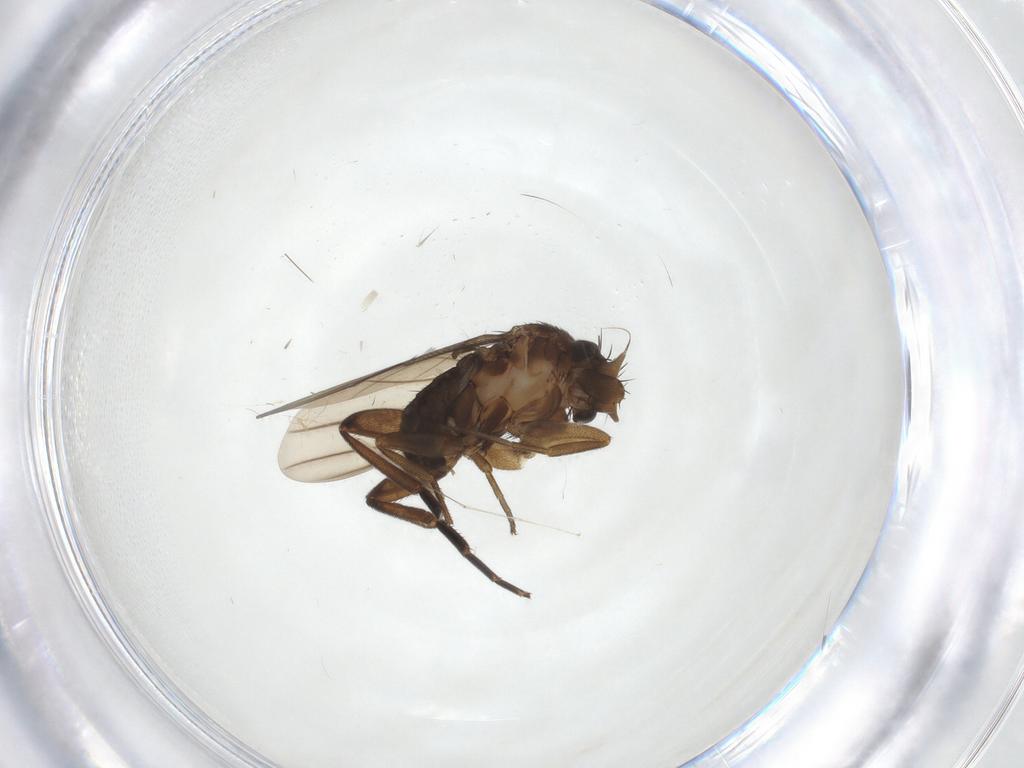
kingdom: Animalia
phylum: Arthropoda
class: Insecta
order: Diptera
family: Cecidomyiidae
